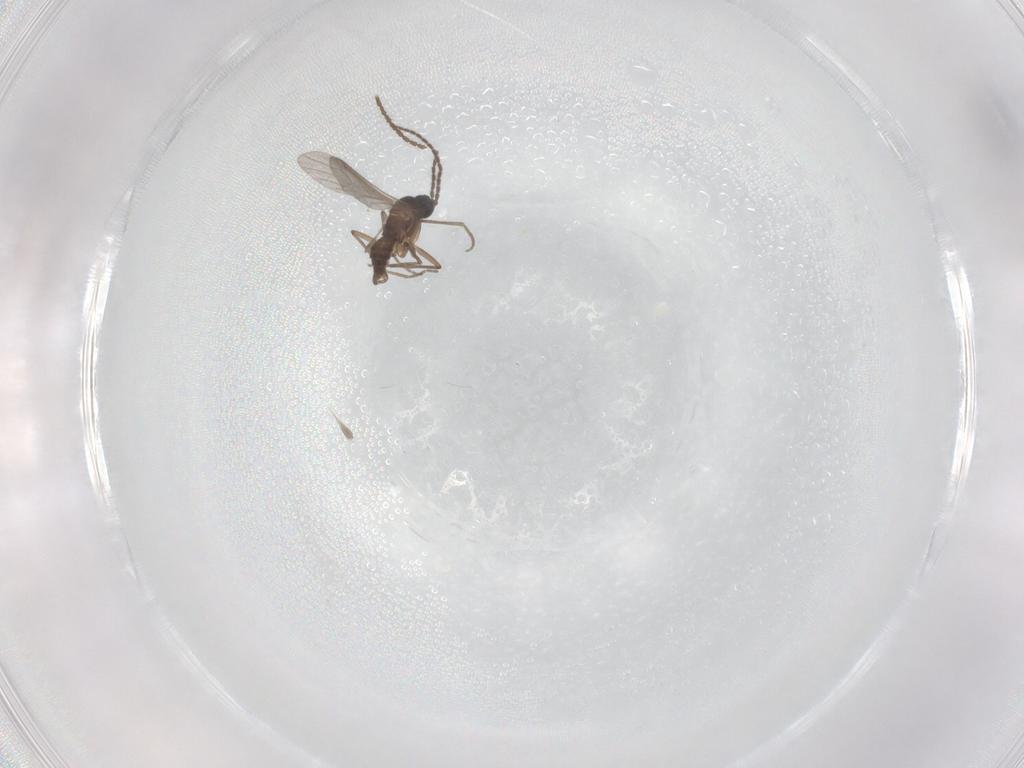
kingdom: Animalia
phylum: Arthropoda
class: Insecta
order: Diptera
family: Sciaridae
